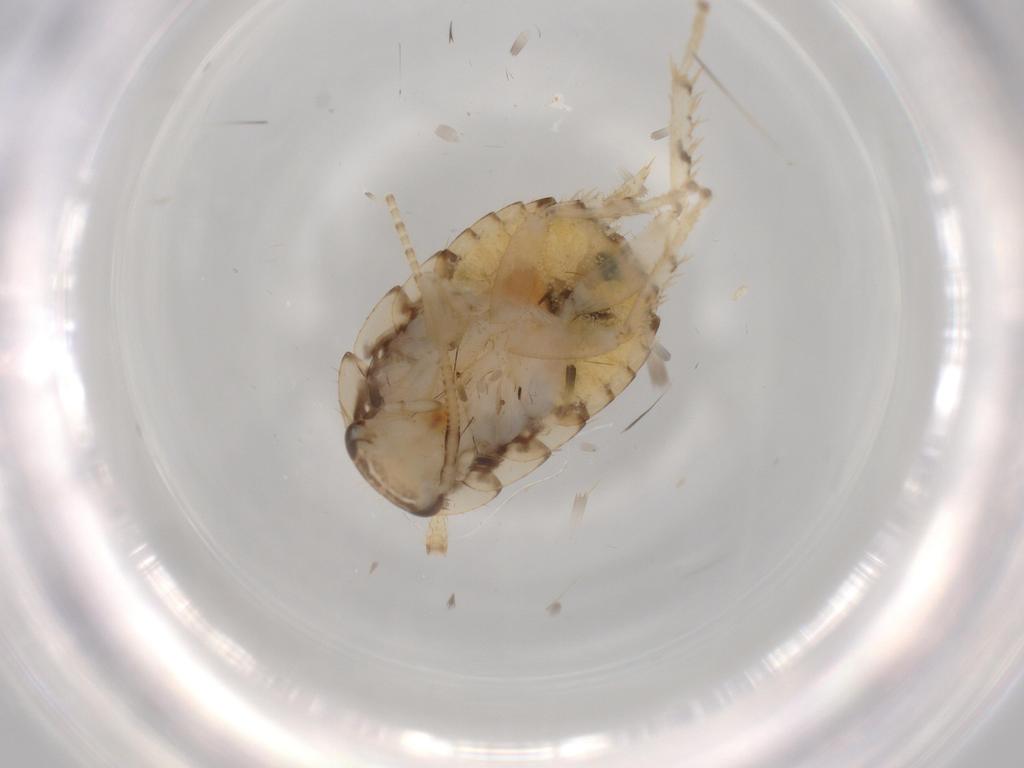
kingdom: Animalia
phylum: Arthropoda
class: Insecta
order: Blattodea
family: Ectobiidae
